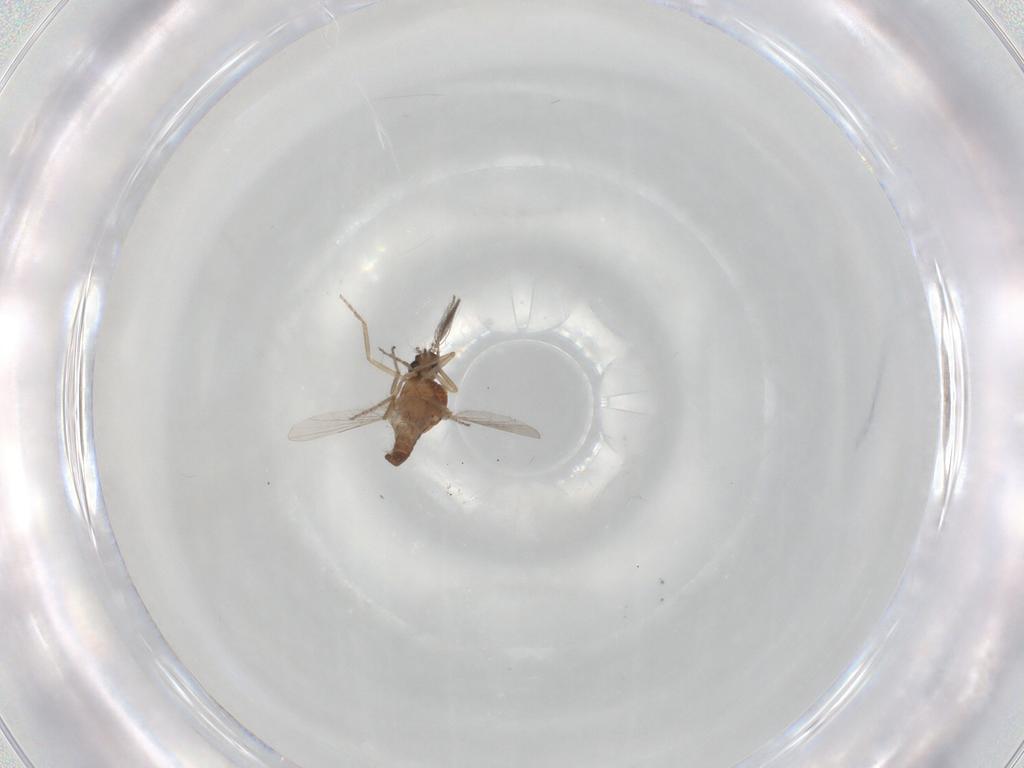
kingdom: Animalia
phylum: Arthropoda
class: Insecta
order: Diptera
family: Ceratopogonidae
